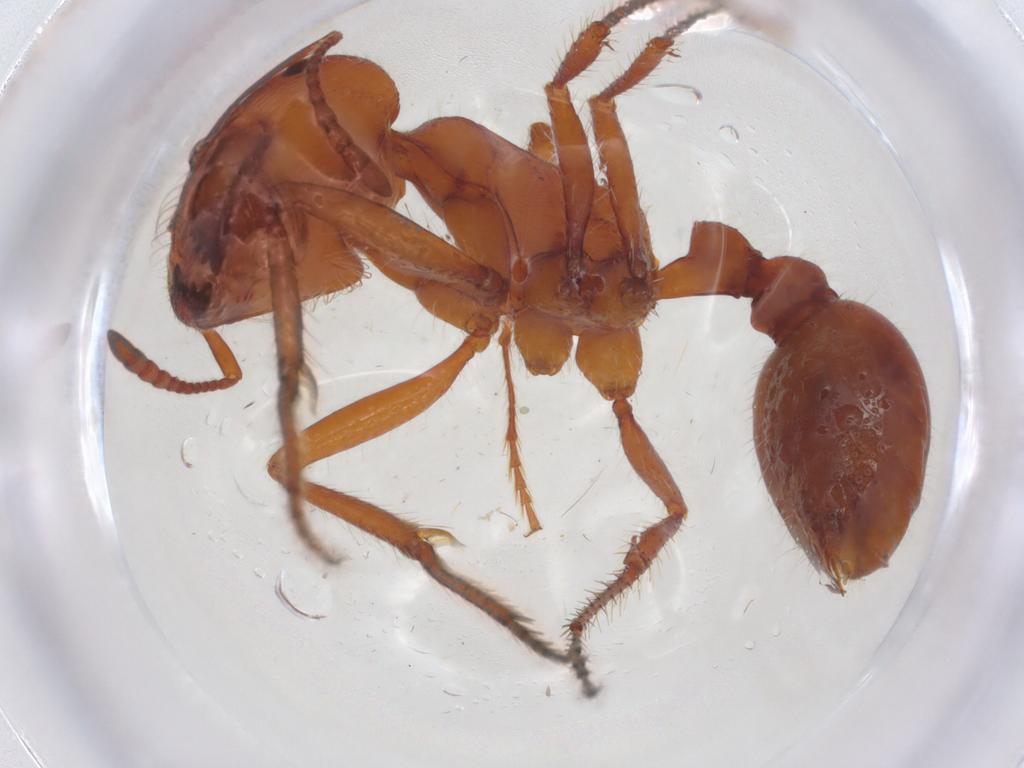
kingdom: Animalia
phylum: Arthropoda
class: Insecta
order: Hymenoptera
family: Formicidae
